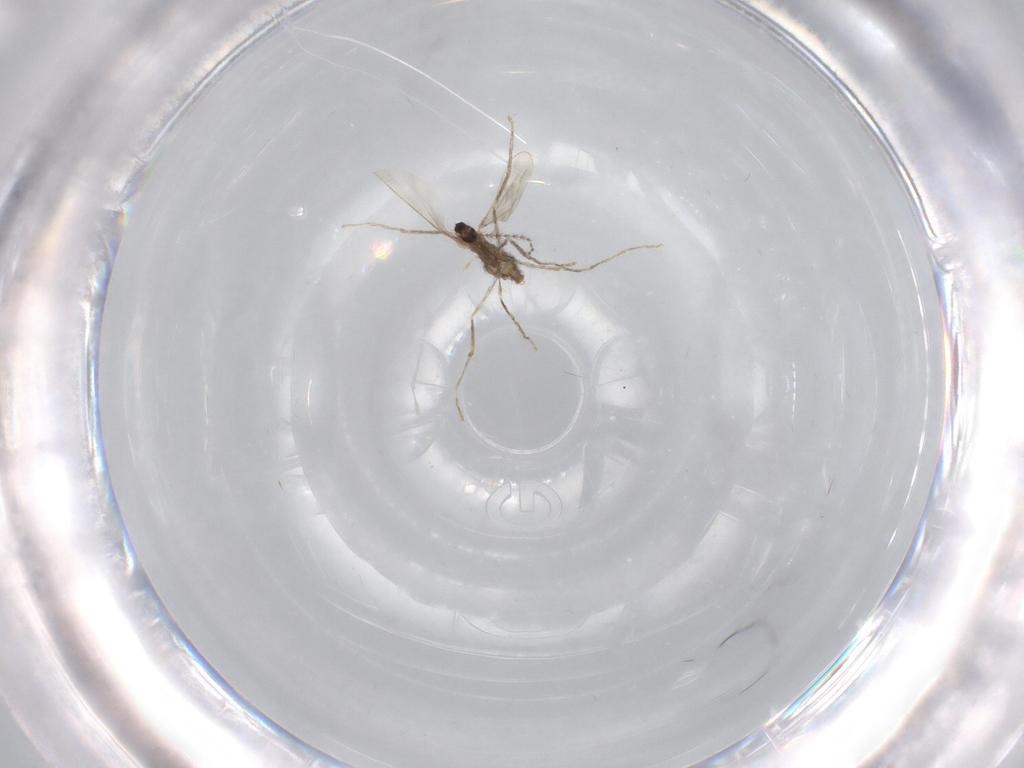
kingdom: Animalia
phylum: Arthropoda
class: Insecta
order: Diptera
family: Cecidomyiidae
